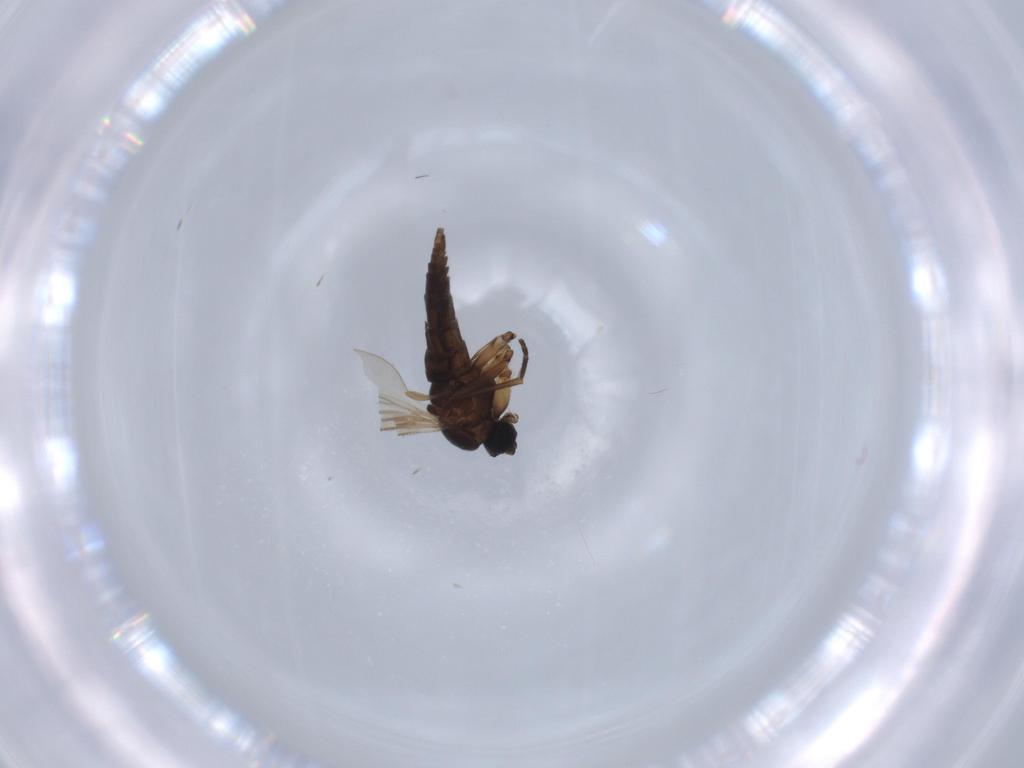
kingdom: Animalia
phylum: Arthropoda
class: Insecta
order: Diptera
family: Sciaridae
